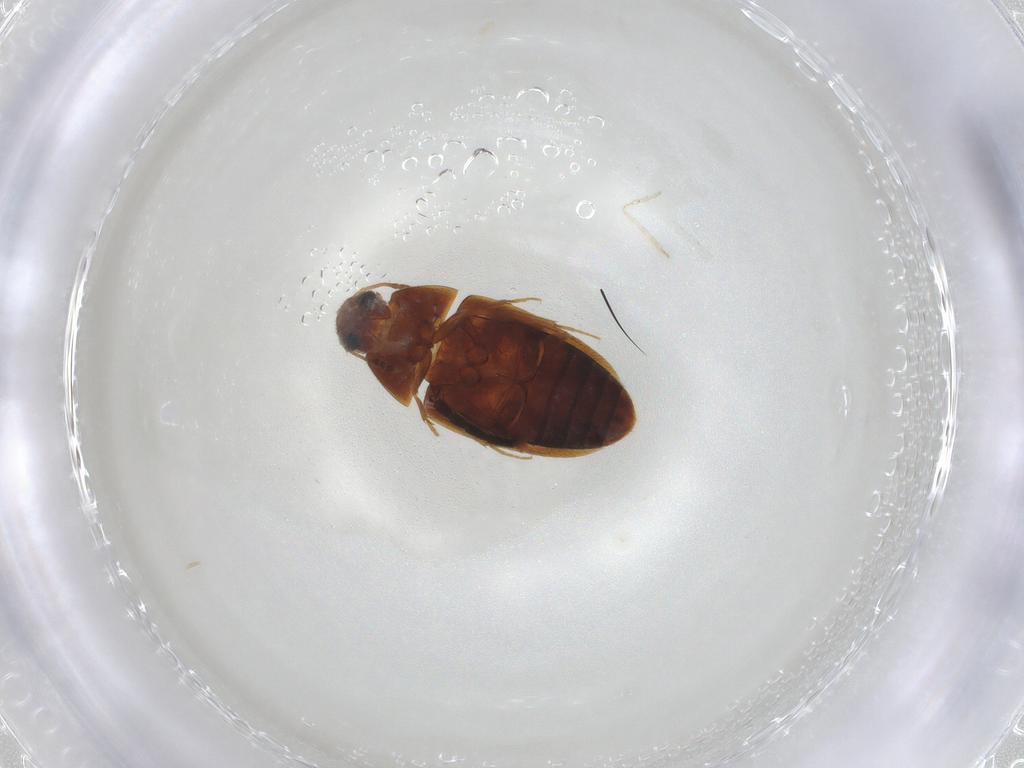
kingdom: Animalia
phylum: Arthropoda
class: Insecta
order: Coleoptera
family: Mycetophagidae
